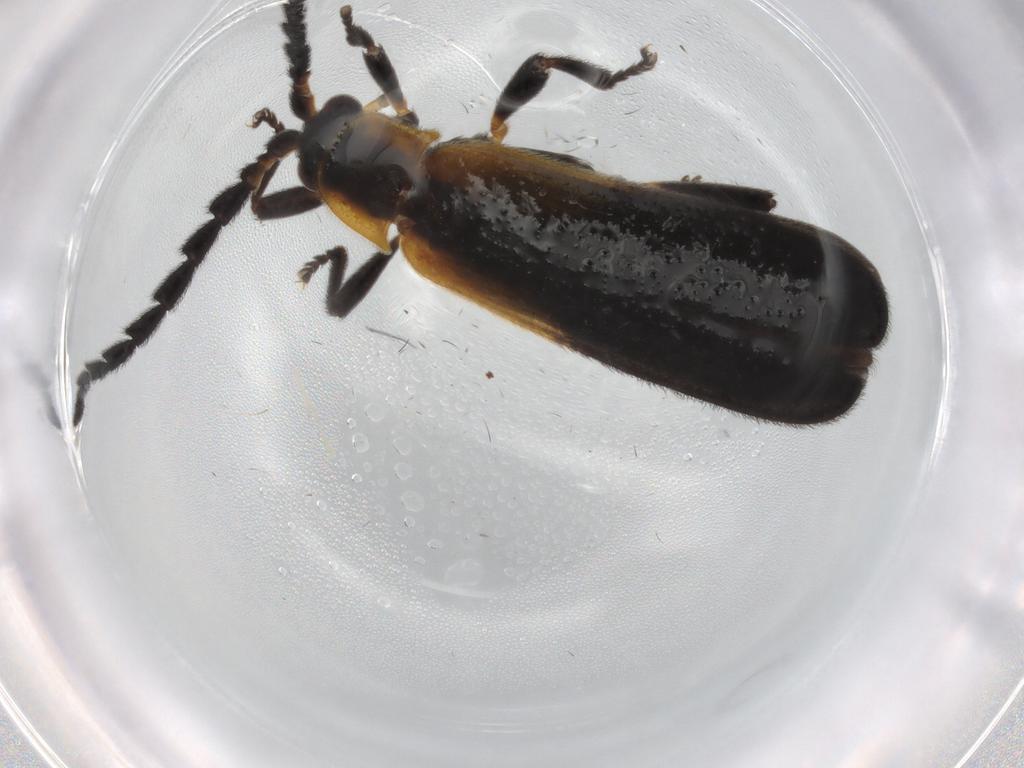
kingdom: Animalia
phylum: Arthropoda
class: Insecta
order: Coleoptera
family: Lycidae
